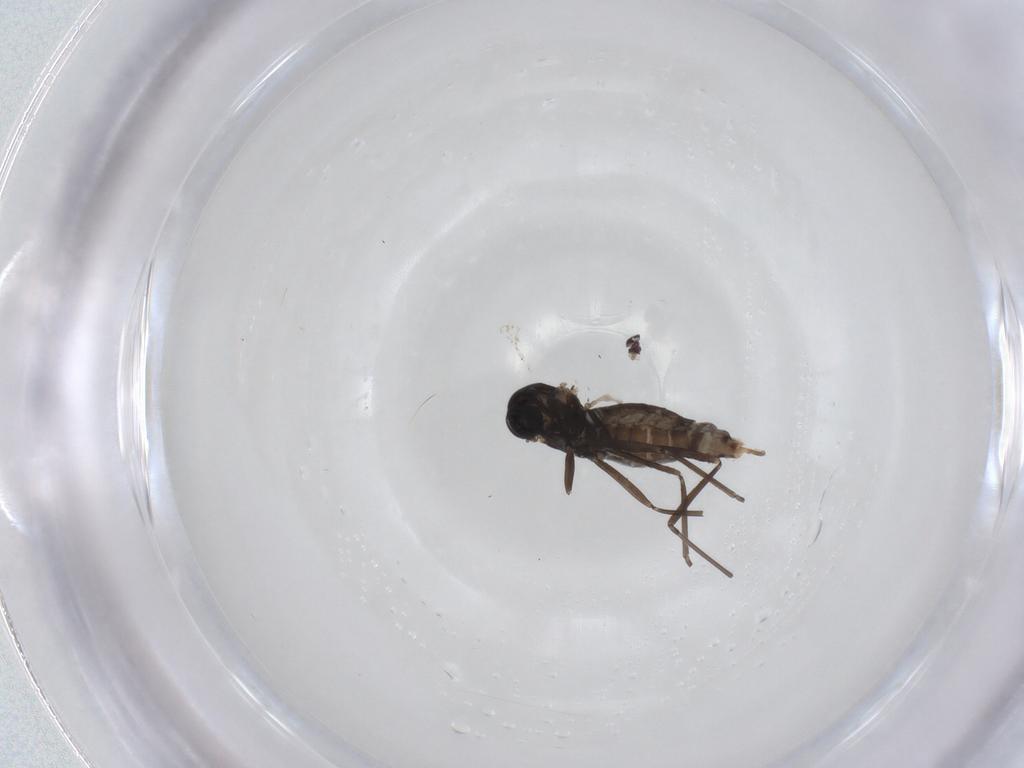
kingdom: Animalia
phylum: Arthropoda
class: Insecta
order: Diptera
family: Cecidomyiidae
